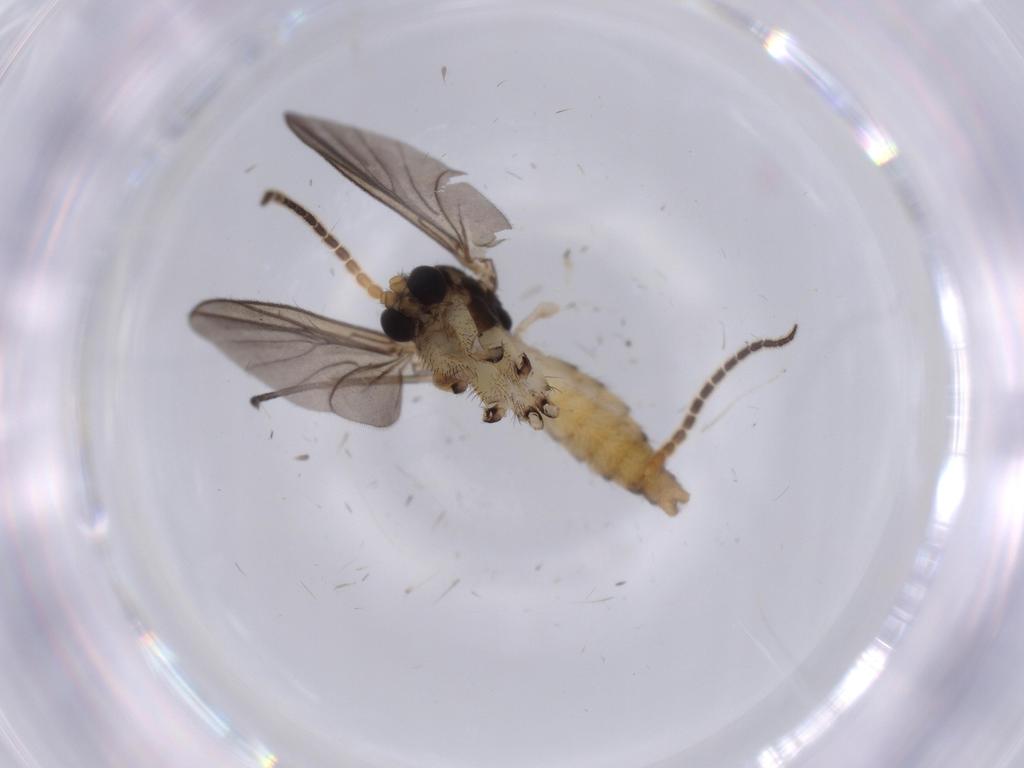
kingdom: Animalia
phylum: Arthropoda
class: Insecta
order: Diptera
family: Cecidomyiidae
